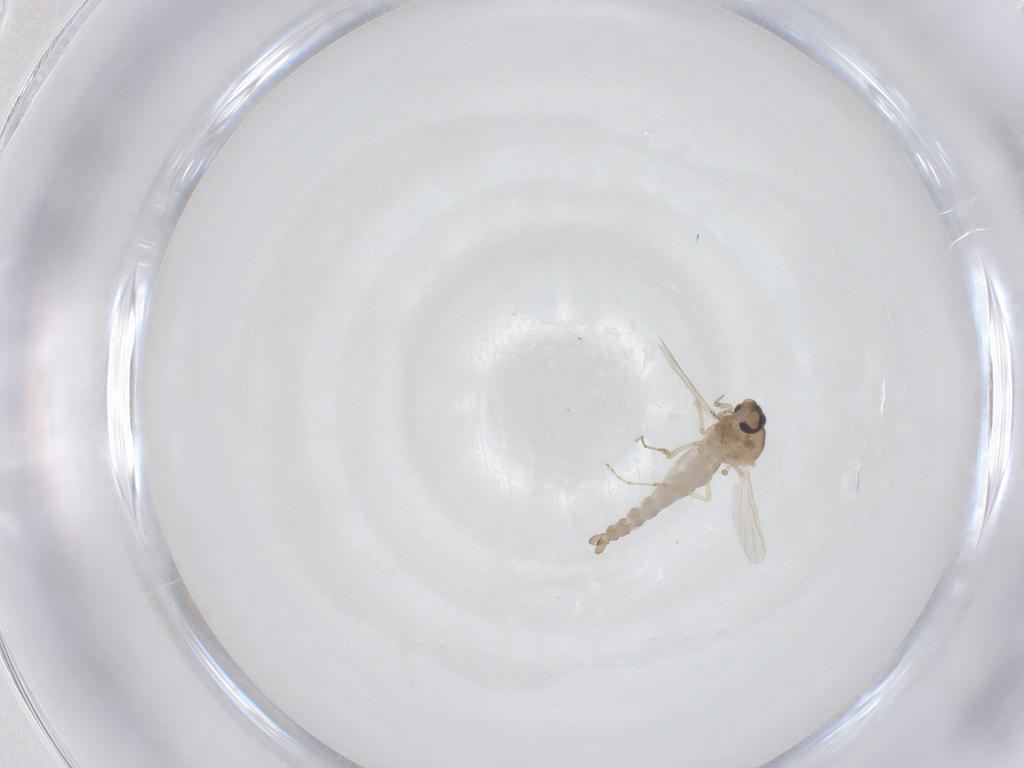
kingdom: Animalia
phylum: Arthropoda
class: Insecta
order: Diptera
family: Ceratopogonidae
